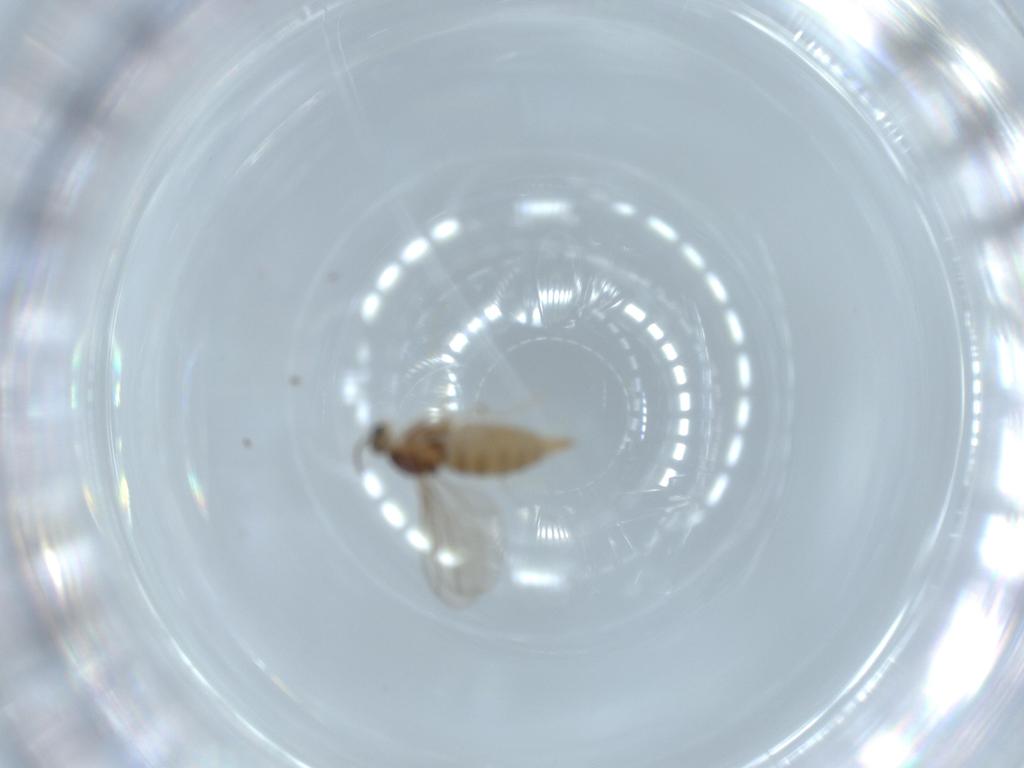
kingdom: Animalia
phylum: Arthropoda
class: Insecta
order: Diptera
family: Cecidomyiidae
